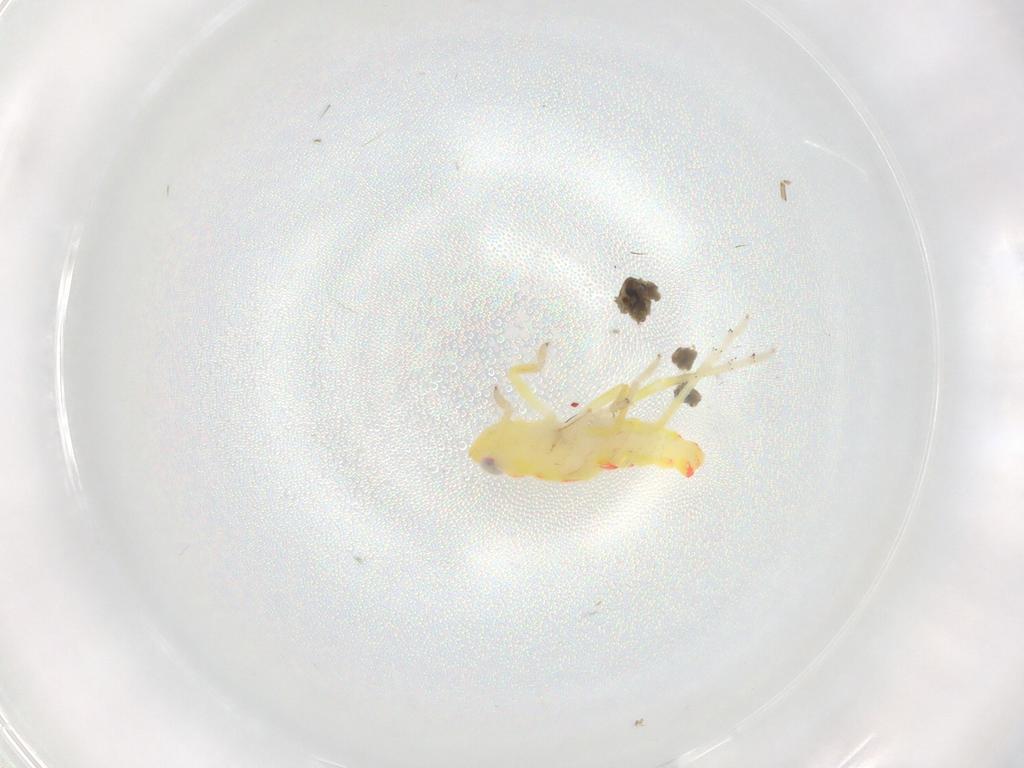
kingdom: Animalia
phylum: Arthropoda
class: Insecta
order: Hemiptera
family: Tropiduchidae
